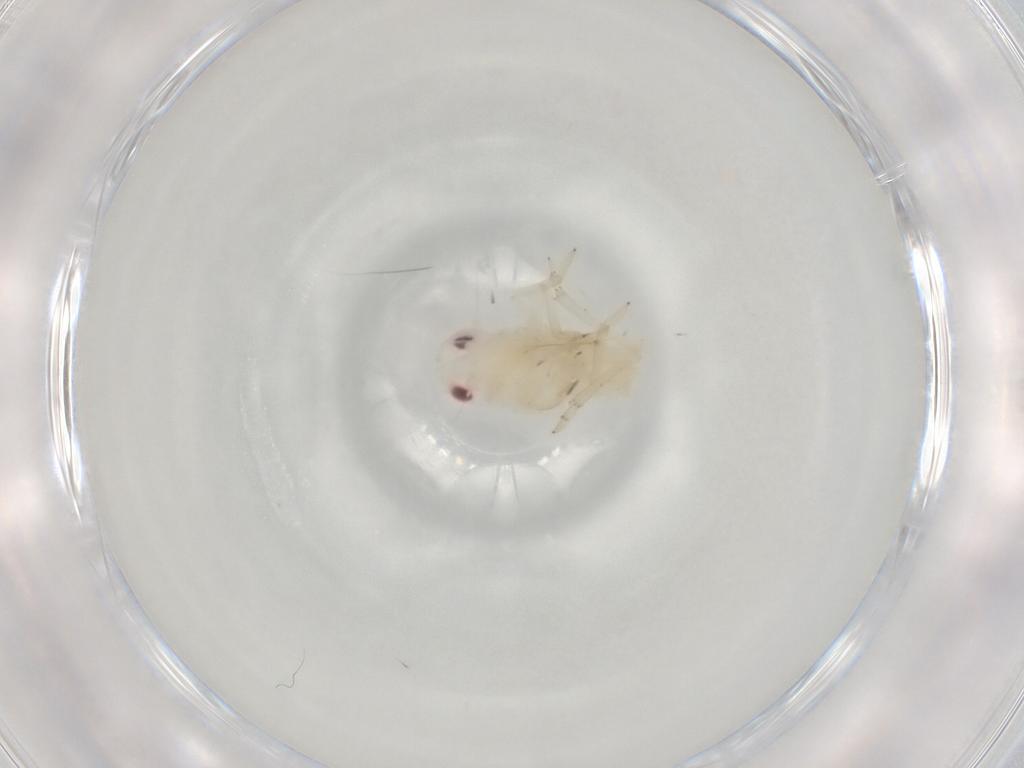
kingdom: Animalia
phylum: Arthropoda
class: Insecta
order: Hemiptera
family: Tropiduchidae
